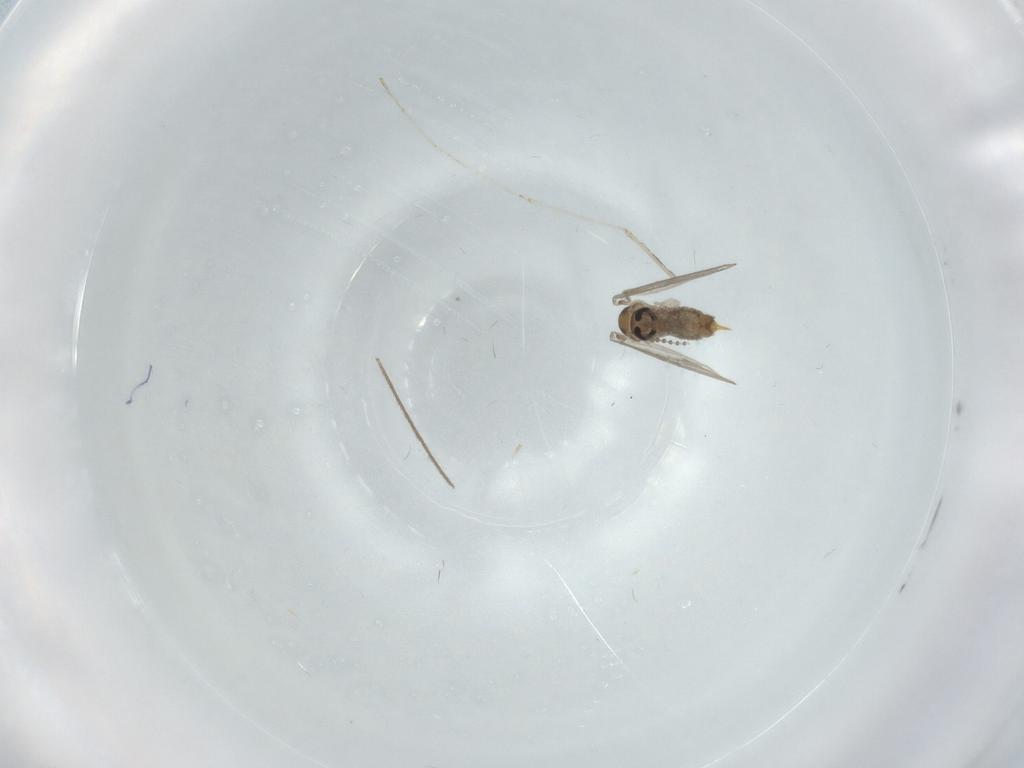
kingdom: Animalia
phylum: Arthropoda
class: Insecta
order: Diptera
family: Psychodidae
